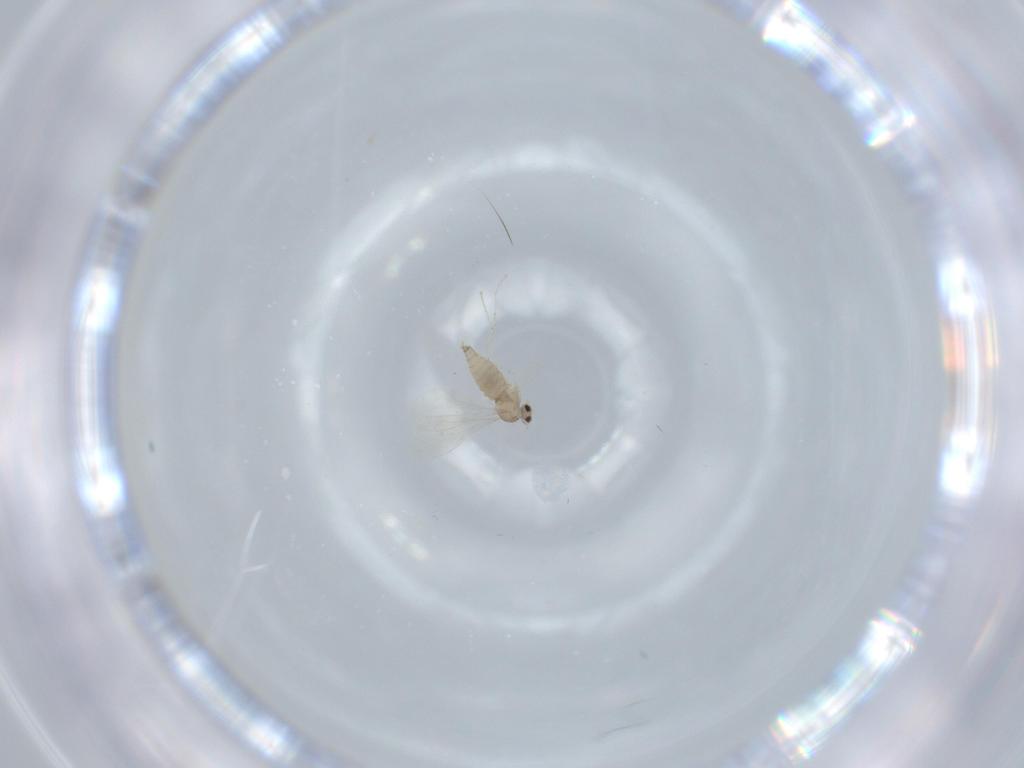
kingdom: Animalia
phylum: Arthropoda
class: Insecta
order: Diptera
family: Cecidomyiidae
